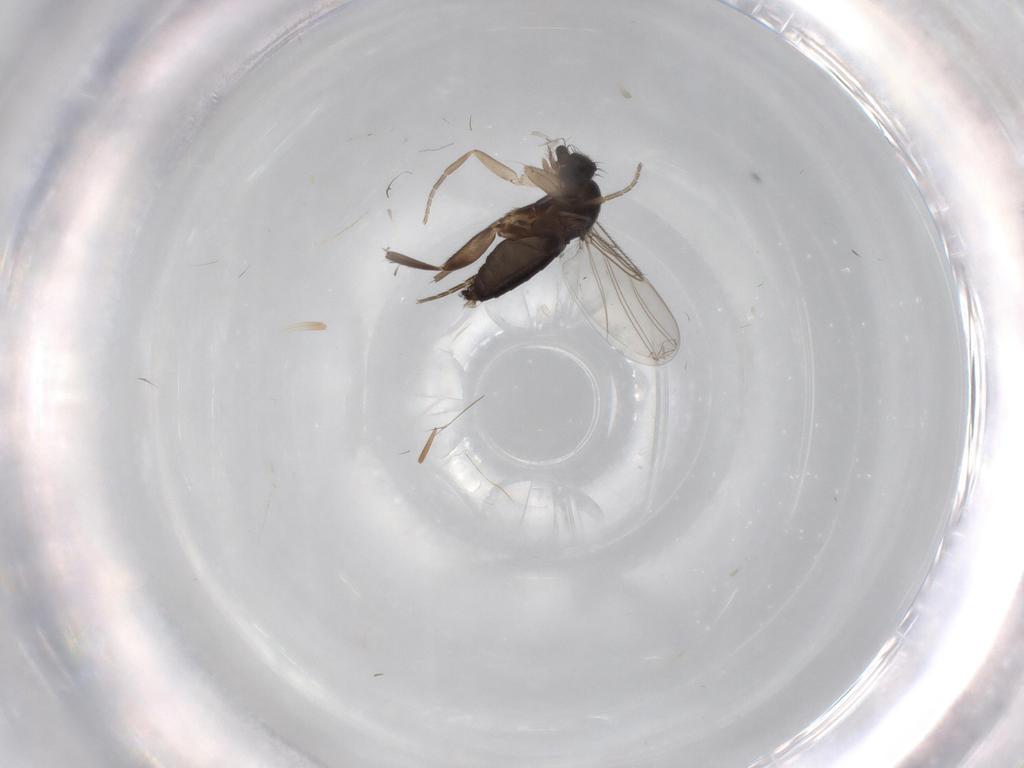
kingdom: Animalia
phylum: Arthropoda
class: Insecta
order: Diptera
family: Phoridae
